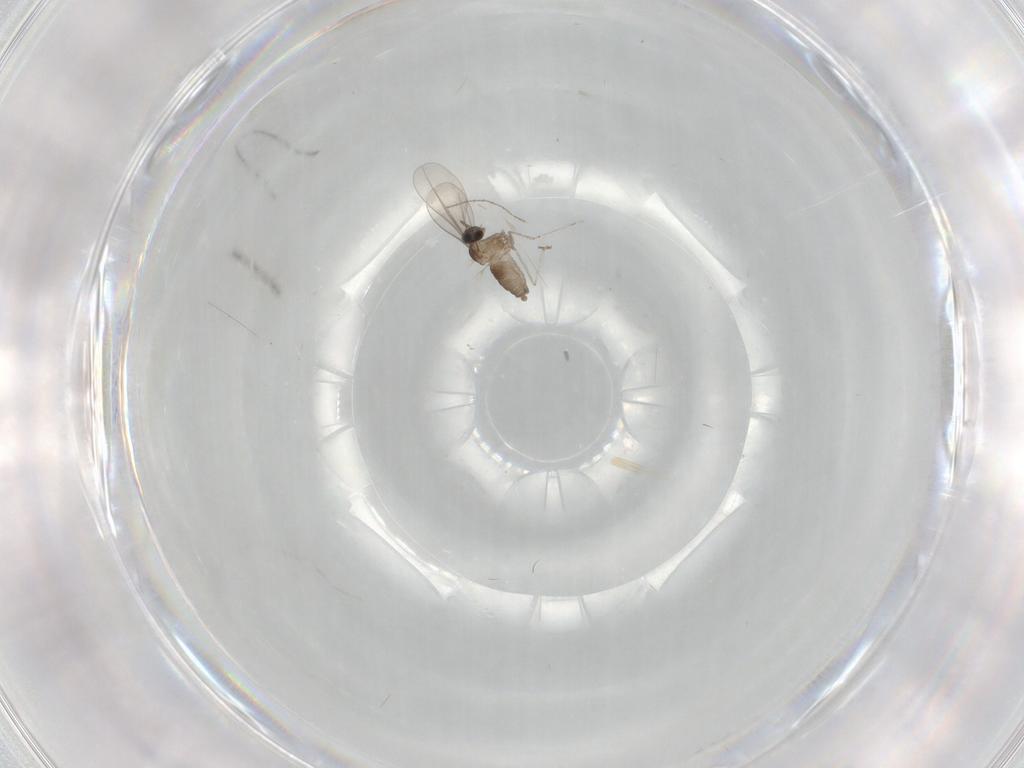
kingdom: Animalia
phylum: Arthropoda
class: Insecta
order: Diptera
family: Cecidomyiidae
